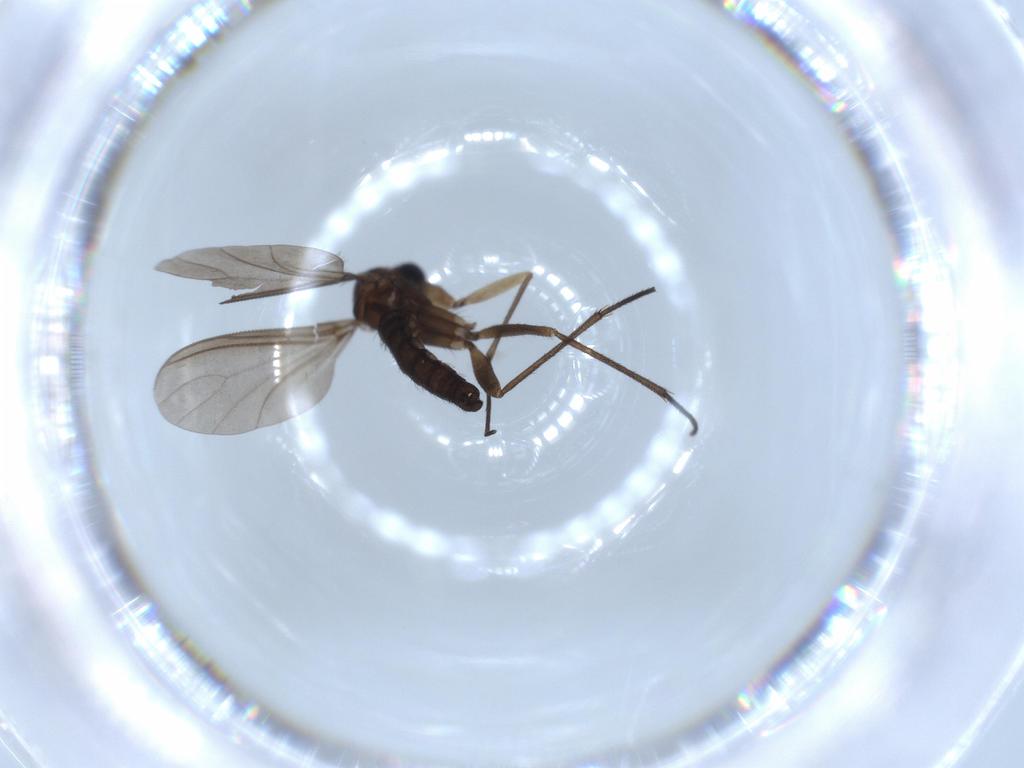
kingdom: Animalia
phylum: Arthropoda
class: Insecta
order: Diptera
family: Sciaridae
